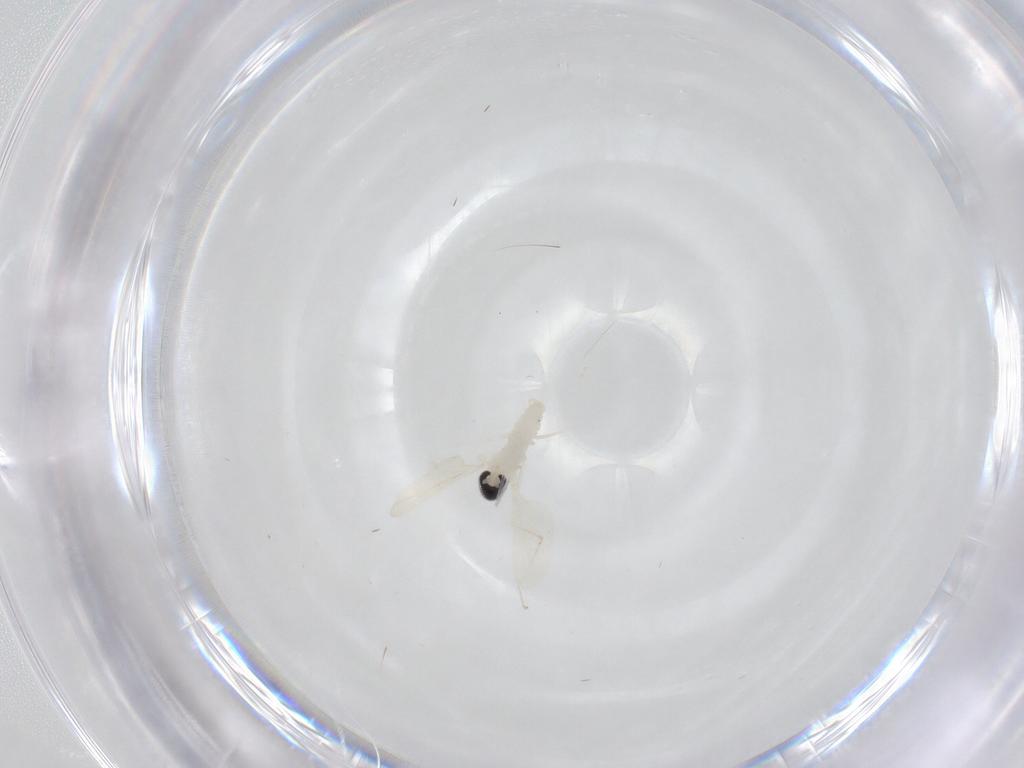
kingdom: Animalia
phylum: Arthropoda
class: Insecta
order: Diptera
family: Cecidomyiidae
